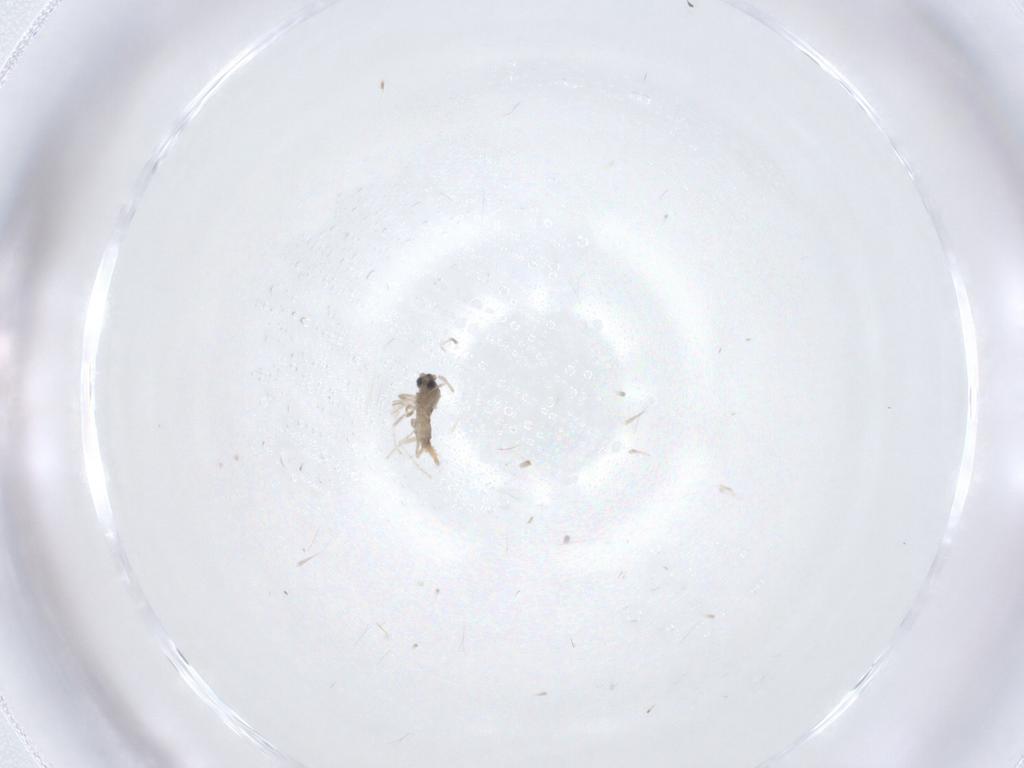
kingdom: Animalia
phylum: Arthropoda
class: Insecta
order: Diptera
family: Cecidomyiidae
